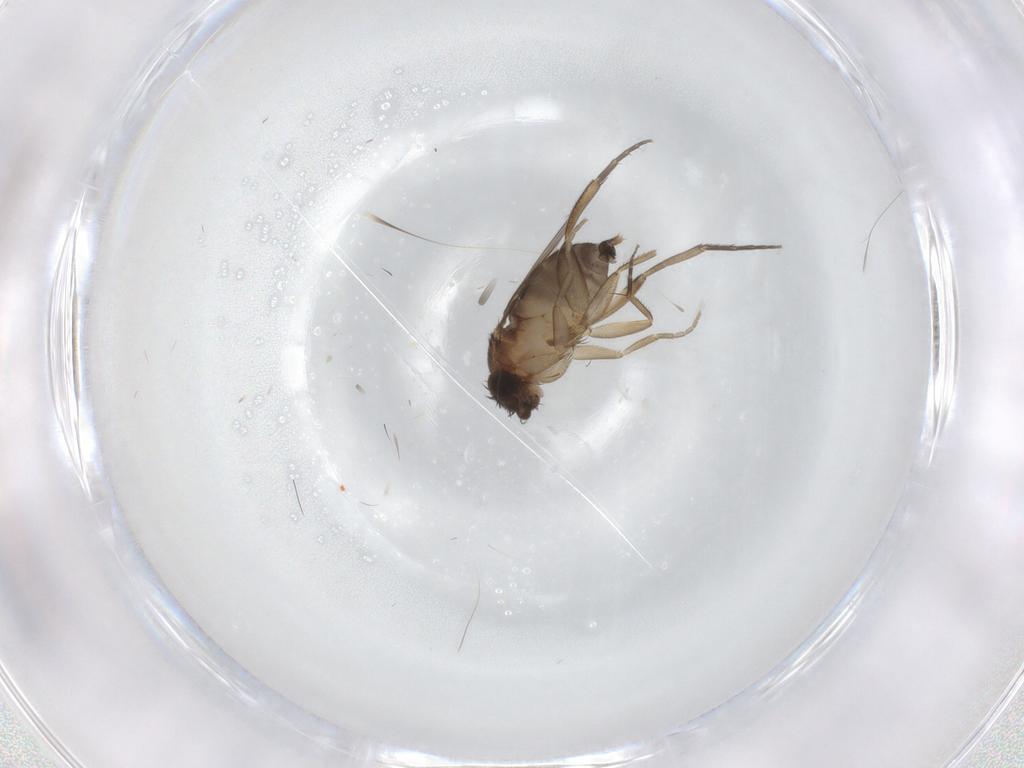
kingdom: Animalia
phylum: Arthropoda
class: Insecta
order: Diptera
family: Phoridae
